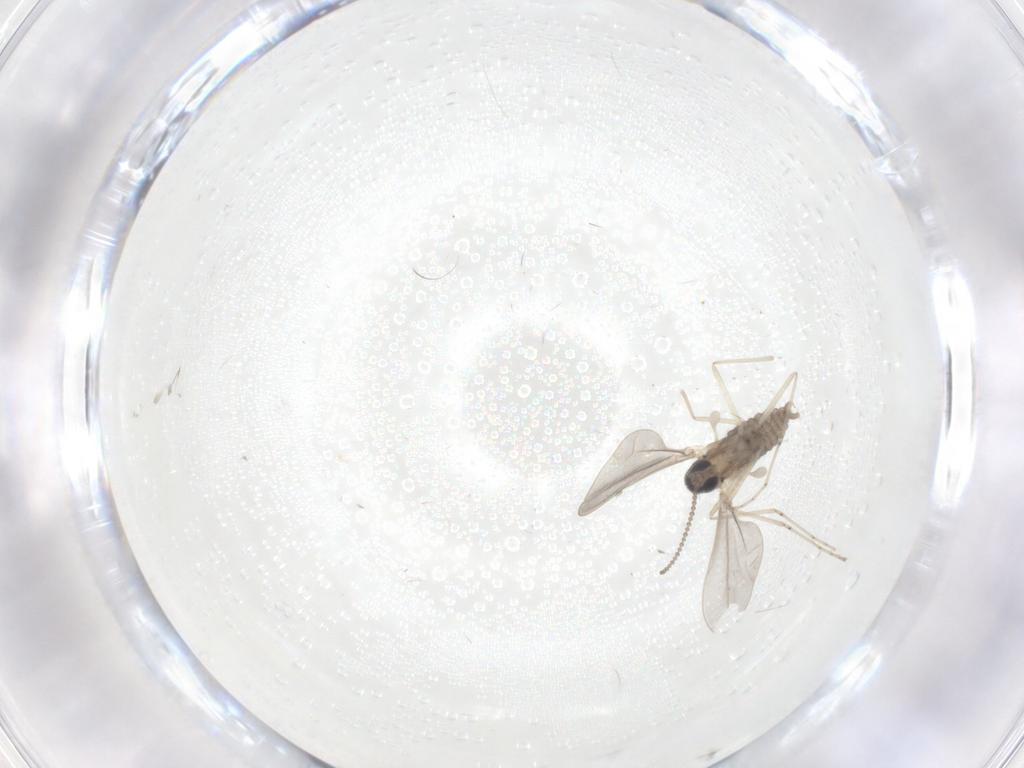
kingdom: Animalia
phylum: Arthropoda
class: Insecta
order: Diptera
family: Cecidomyiidae
